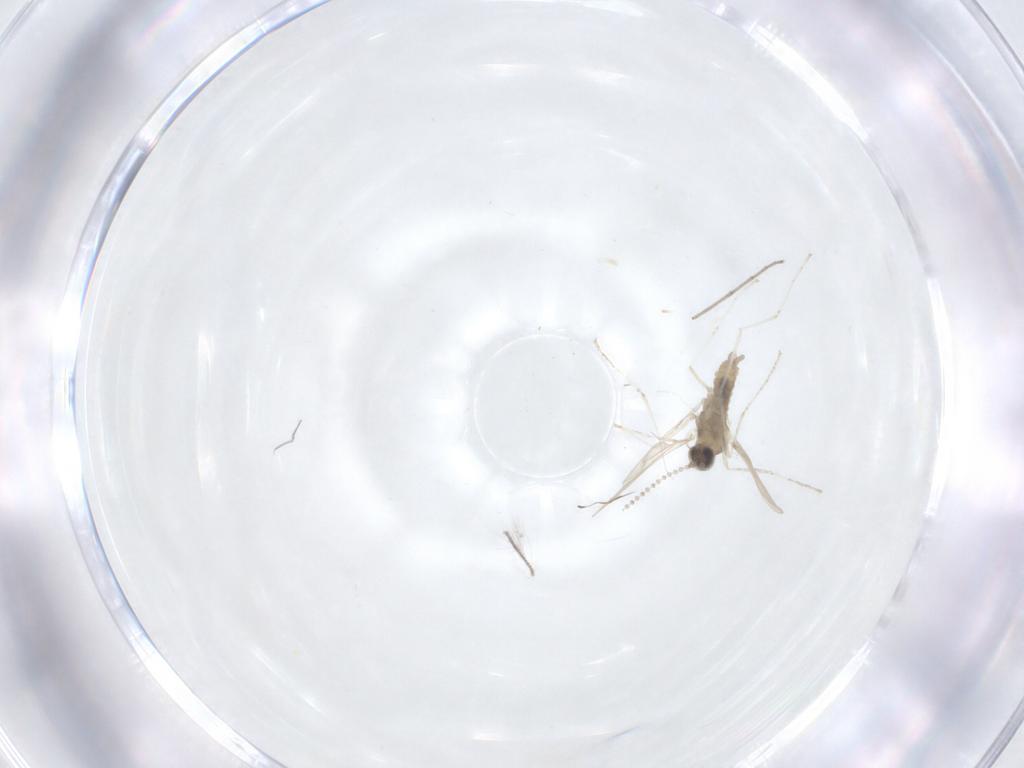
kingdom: Animalia
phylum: Arthropoda
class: Insecta
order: Diptera
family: Chironomidae
